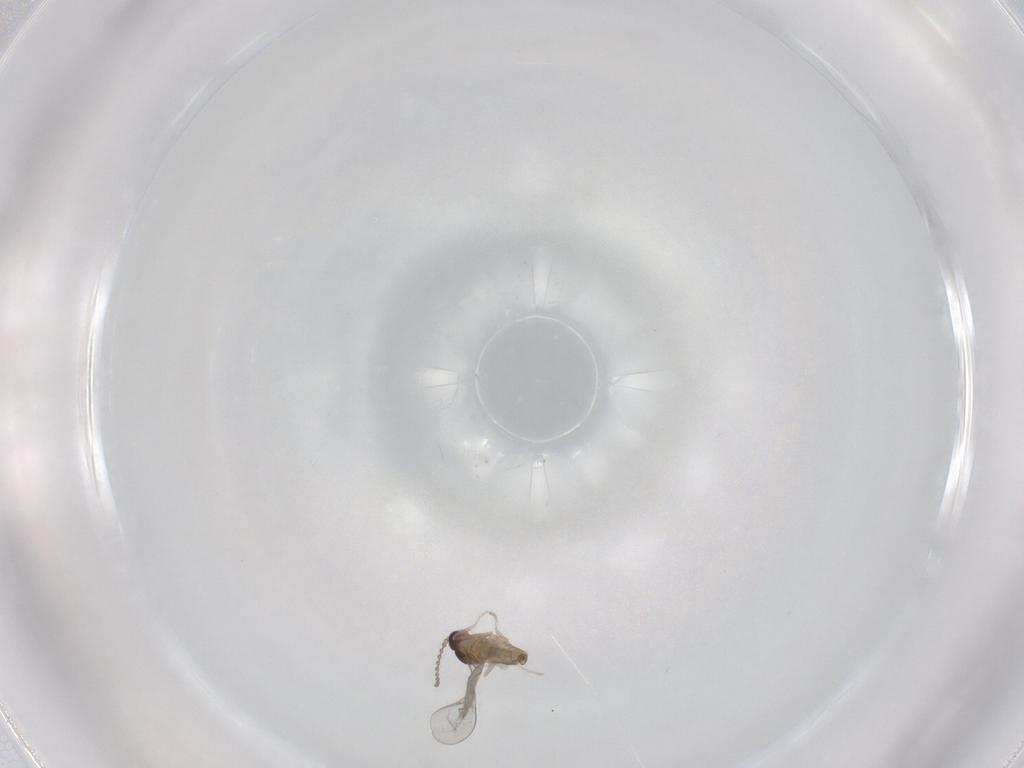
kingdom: Animalia
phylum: Arthropoda
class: Insecta
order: Diptera
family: Cecidomyiidae
